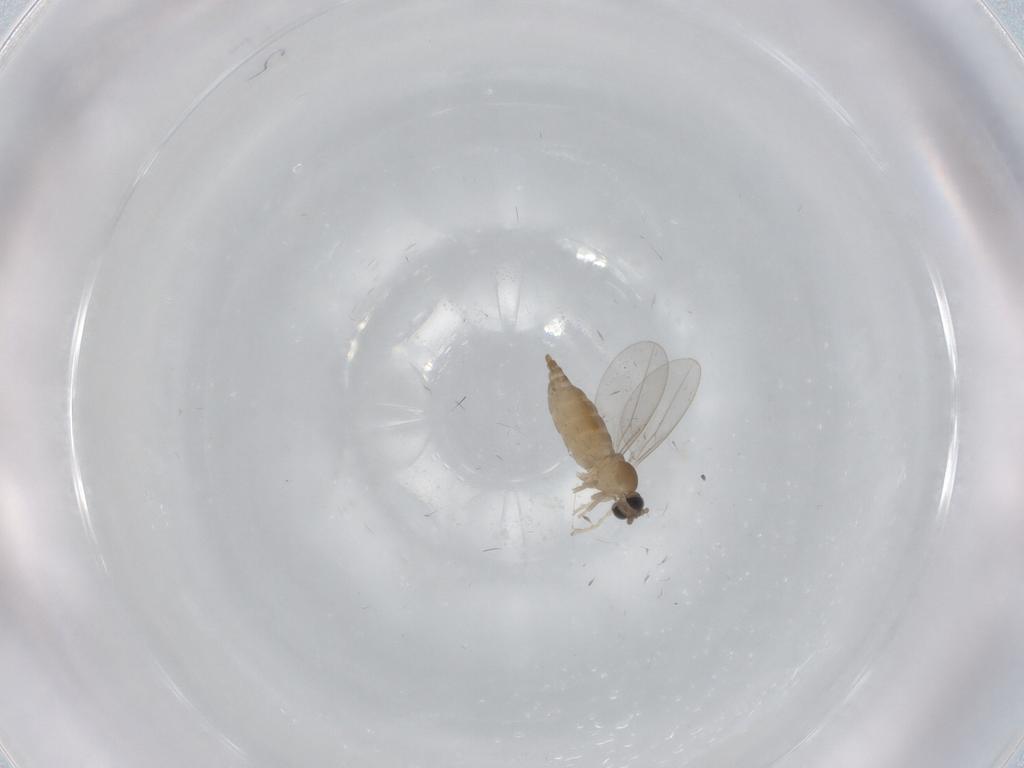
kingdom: Animalia
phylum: Arthropoda
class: Insecta
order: Diptera
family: Cecidomyiidae
